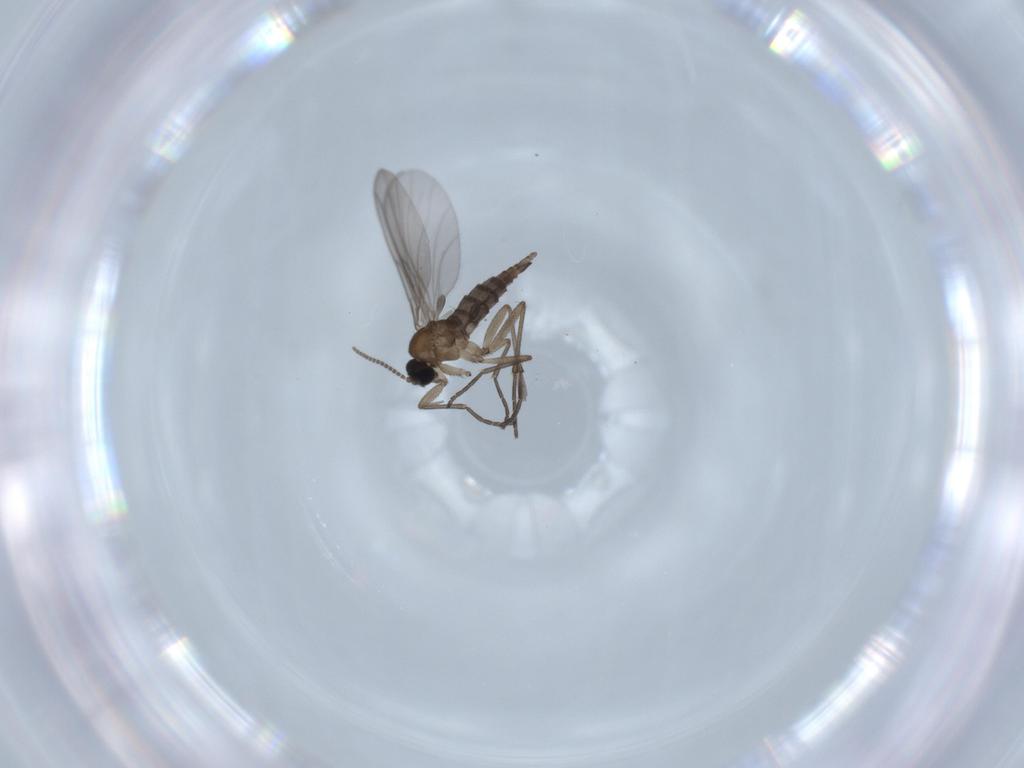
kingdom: Animalia
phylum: Arthropoda
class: Insecta
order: Diptera
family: Sciaridae
